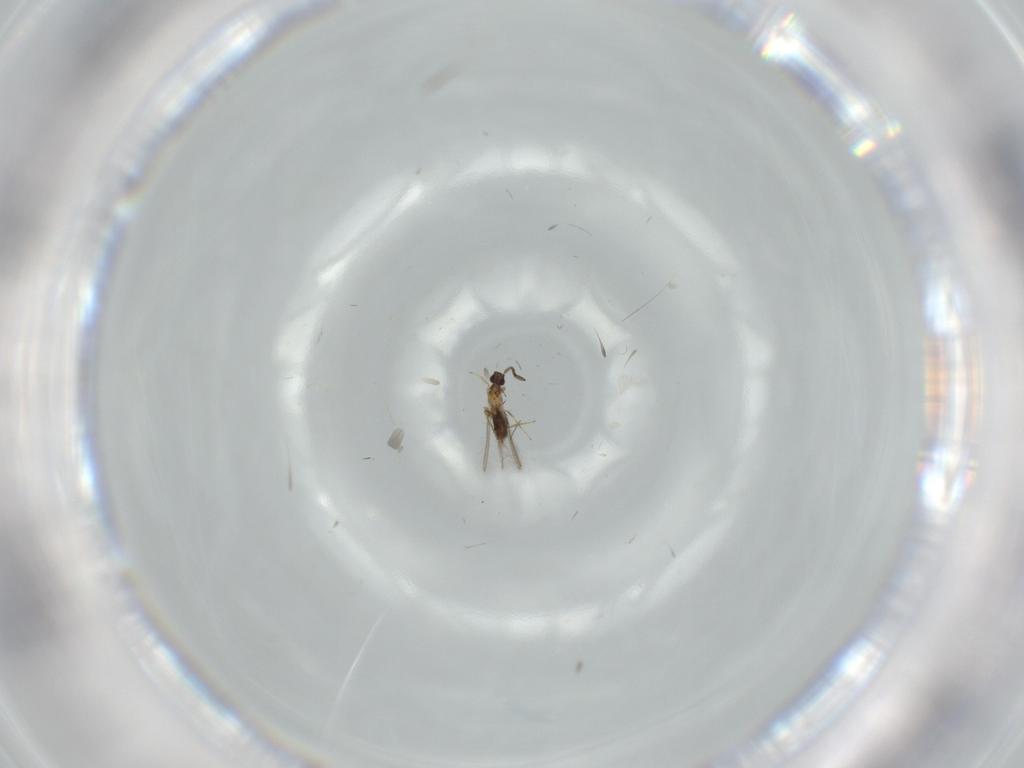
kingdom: Animalia
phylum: Arthropoda
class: Insecta
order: Hymenoptera
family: Mymaridae
